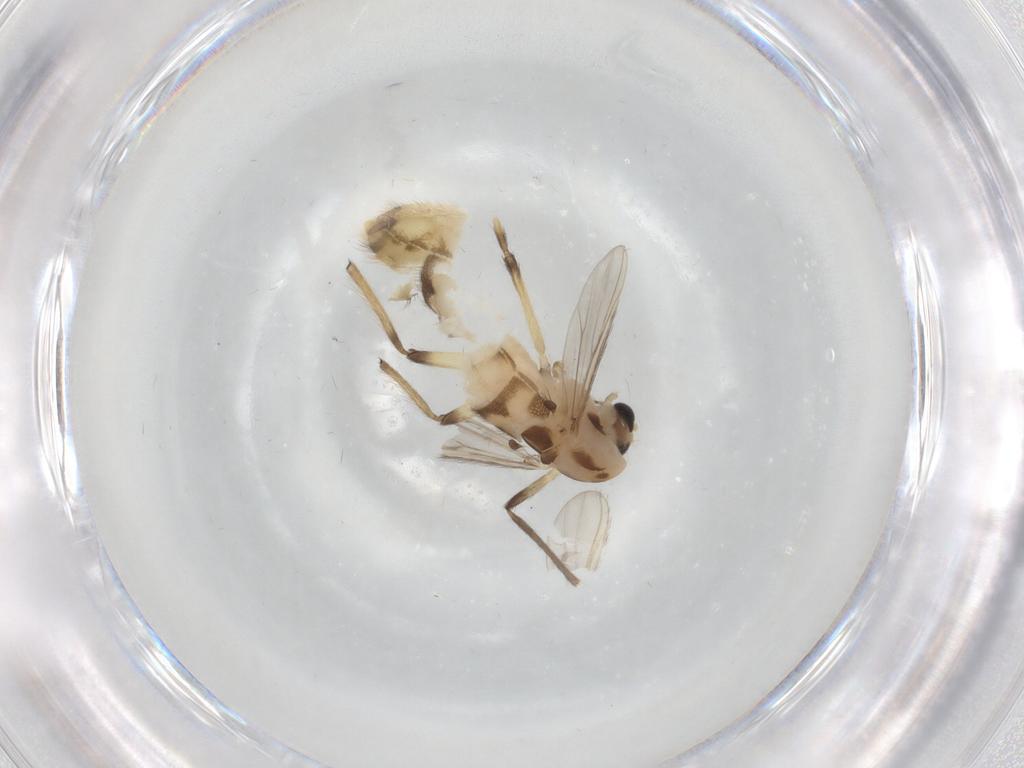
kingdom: Animalia
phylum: Arthropoda
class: Insecta
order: Diptera
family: Chironomidae
